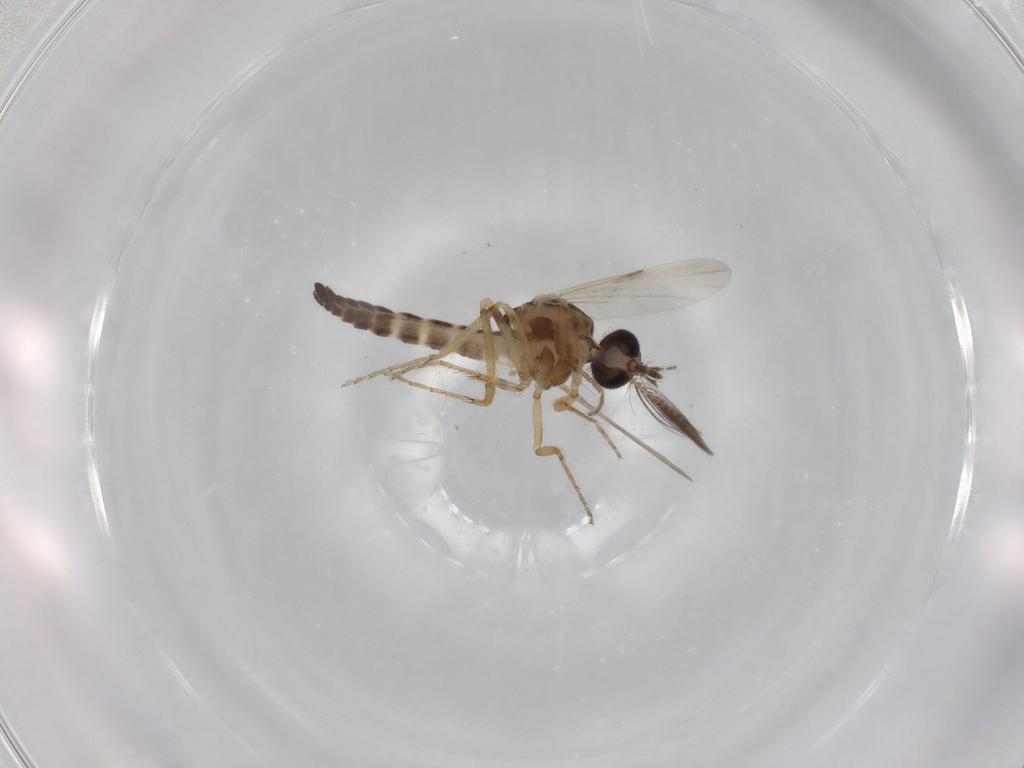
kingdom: Animalia
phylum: Arthropoda
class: Insecta
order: Diptera
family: Ceratopogonidae
